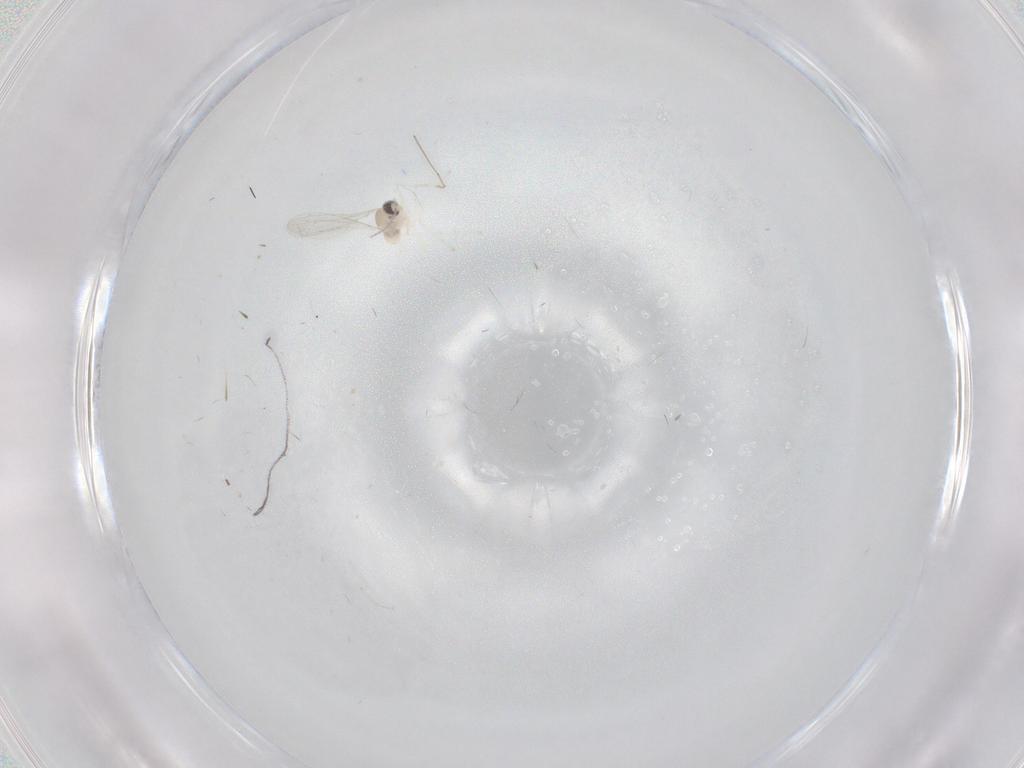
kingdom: Animalia
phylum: Arthropoda
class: Insecta
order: Diptera
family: Cecidomyiidae
